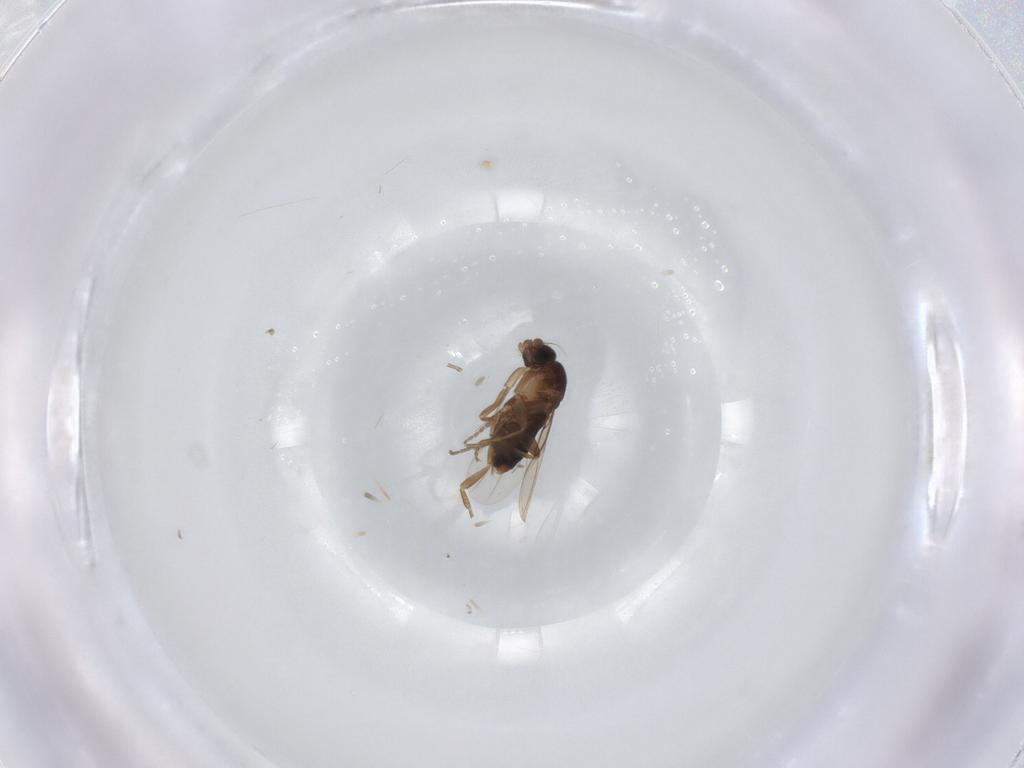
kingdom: Animalia
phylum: Arthropoda
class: Insecta
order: Diptera
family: Chironomidae
